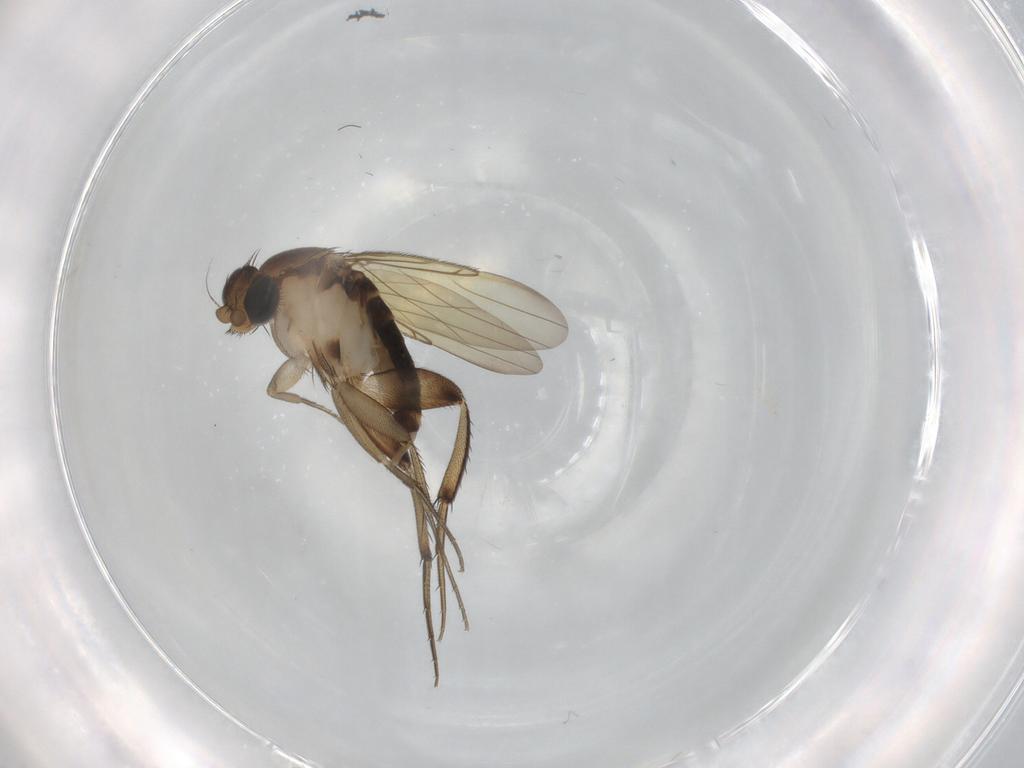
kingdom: Animalia
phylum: Arthropoda
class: Insecta
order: Diptera
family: Phoridae
